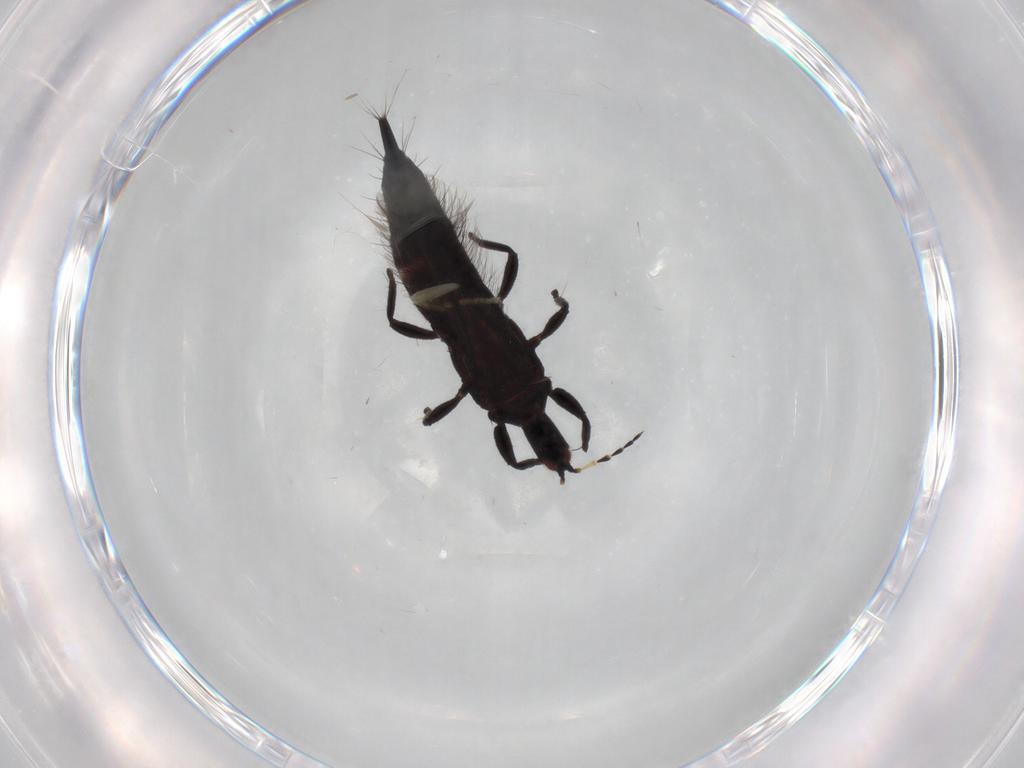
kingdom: Animalia
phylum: Arthropoda
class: Insecta
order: Thysanoptera
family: Phlaeothripidae
